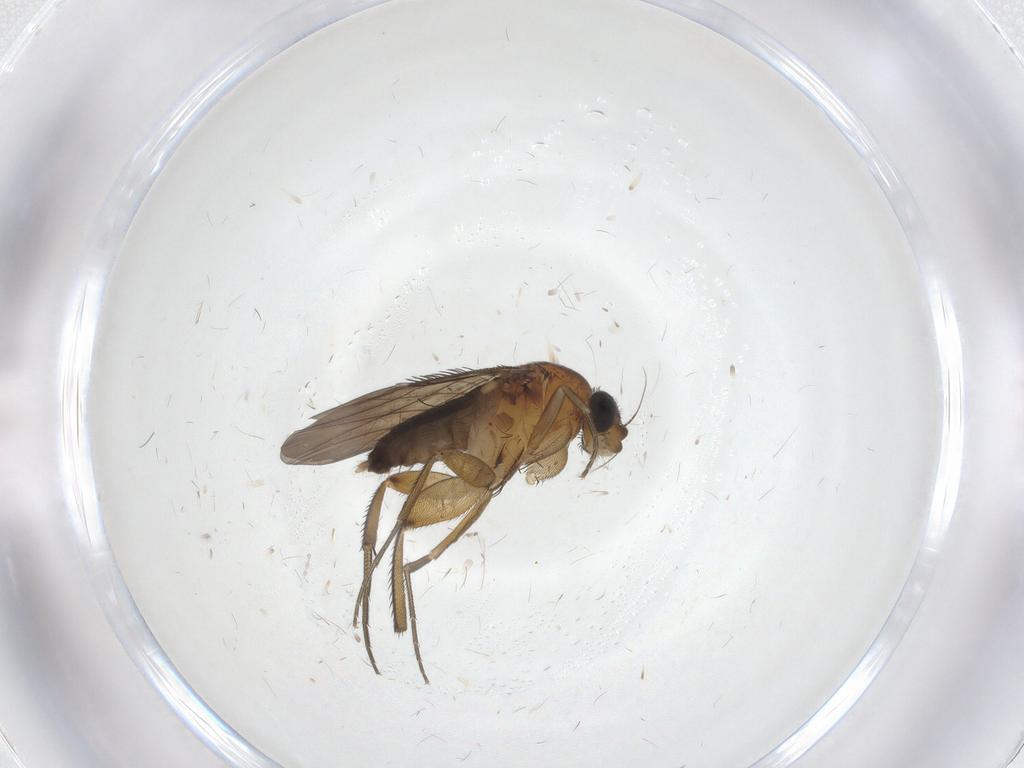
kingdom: Animalia
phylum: Arthropoda
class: Insecta
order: Diptera
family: Phoridae
